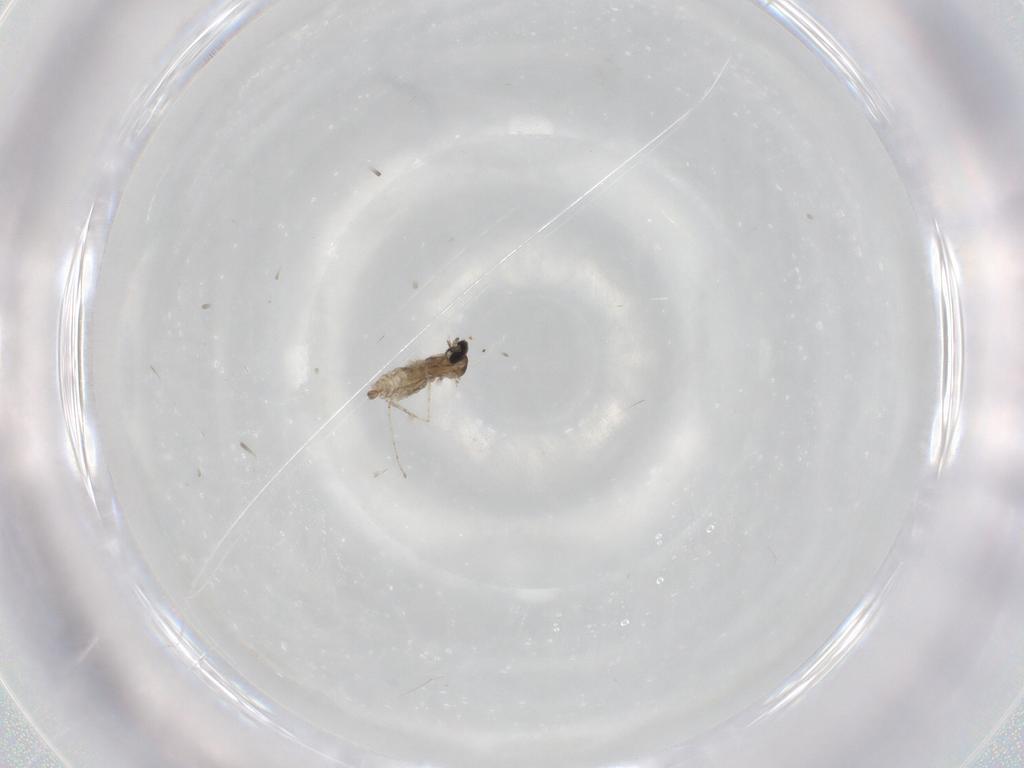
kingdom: Animalia
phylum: Arthropoda
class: Insecta
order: Diptera
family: Cecidomyiidae
